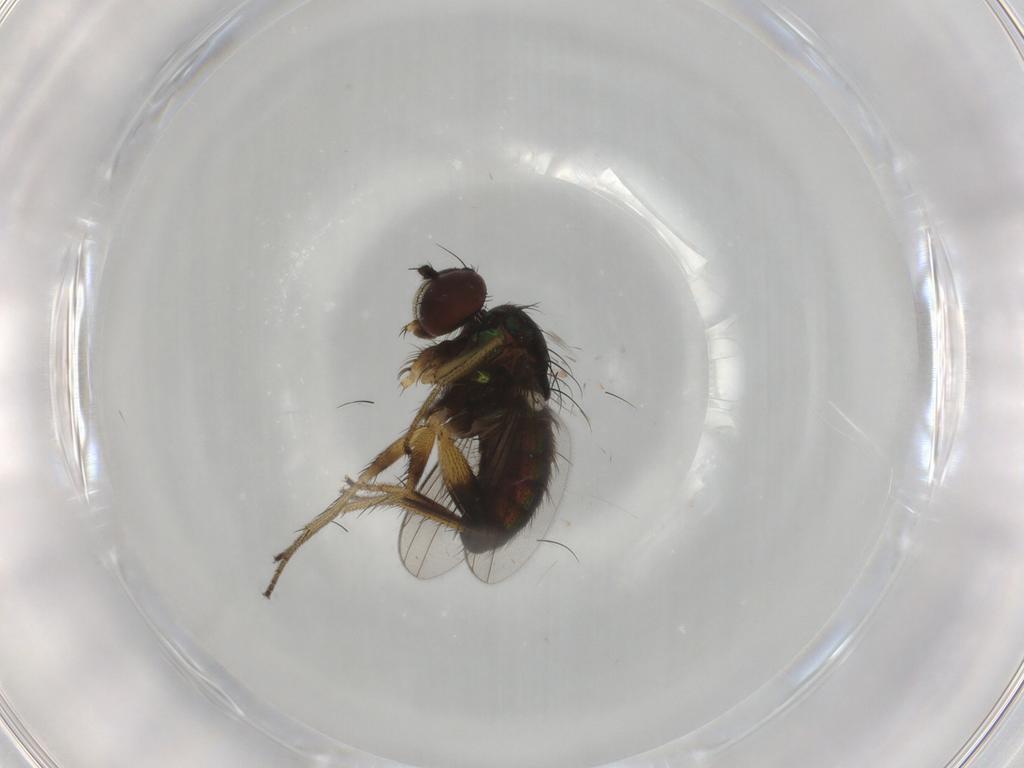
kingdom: Animalia
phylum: Arthropoda
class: Insecta
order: Diptera
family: Dolichopodidae
